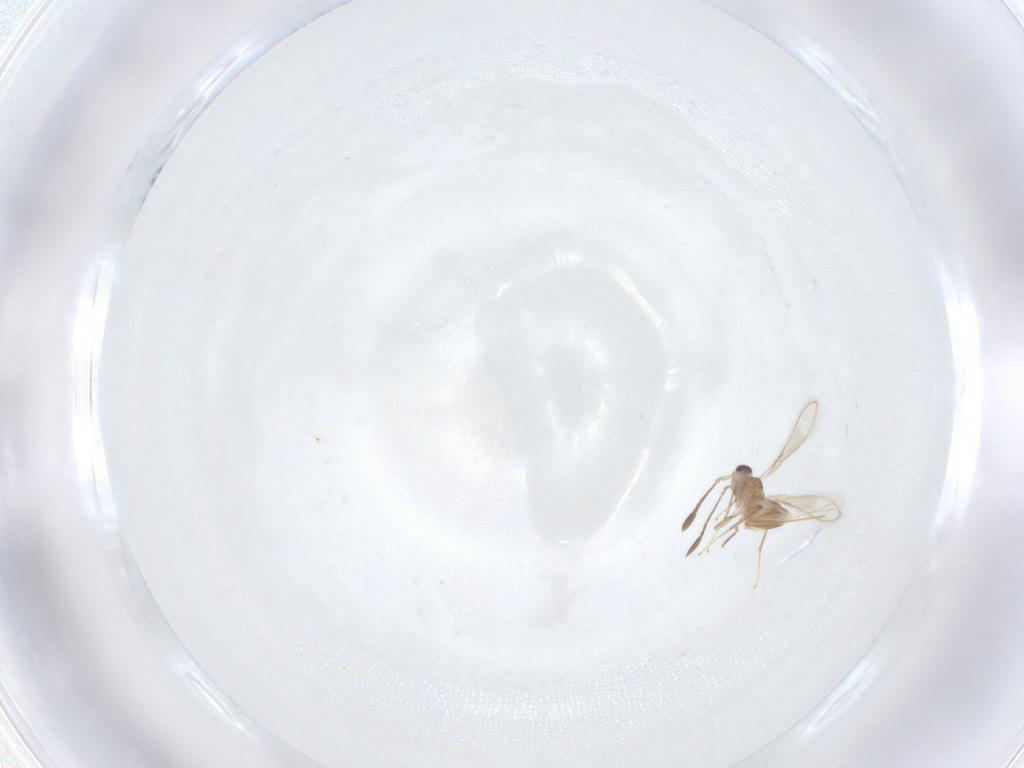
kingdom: Animalia
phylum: Arthropoda
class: Insecta
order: Hymenoptera
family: Mymaridae
